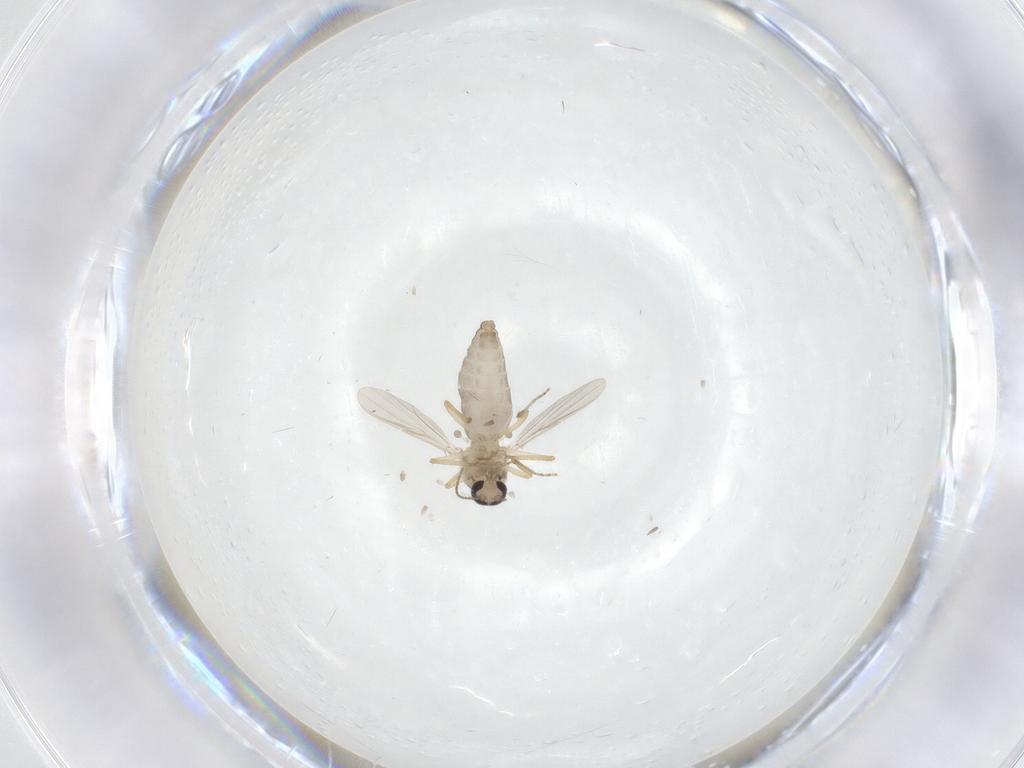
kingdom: Animalia
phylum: Arthropoda
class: Insecta
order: Diptera
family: Ceratopogonidae
